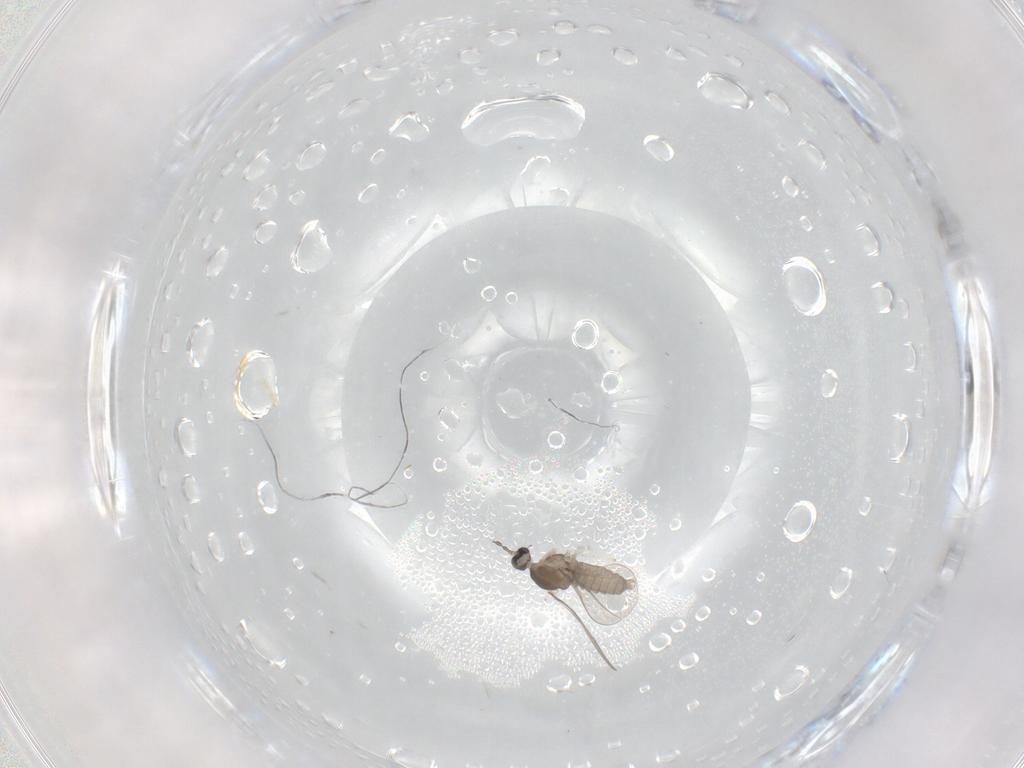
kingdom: Animalia
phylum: Arthropoda
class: Insecta
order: Diptera
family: Cecidomyiidae
